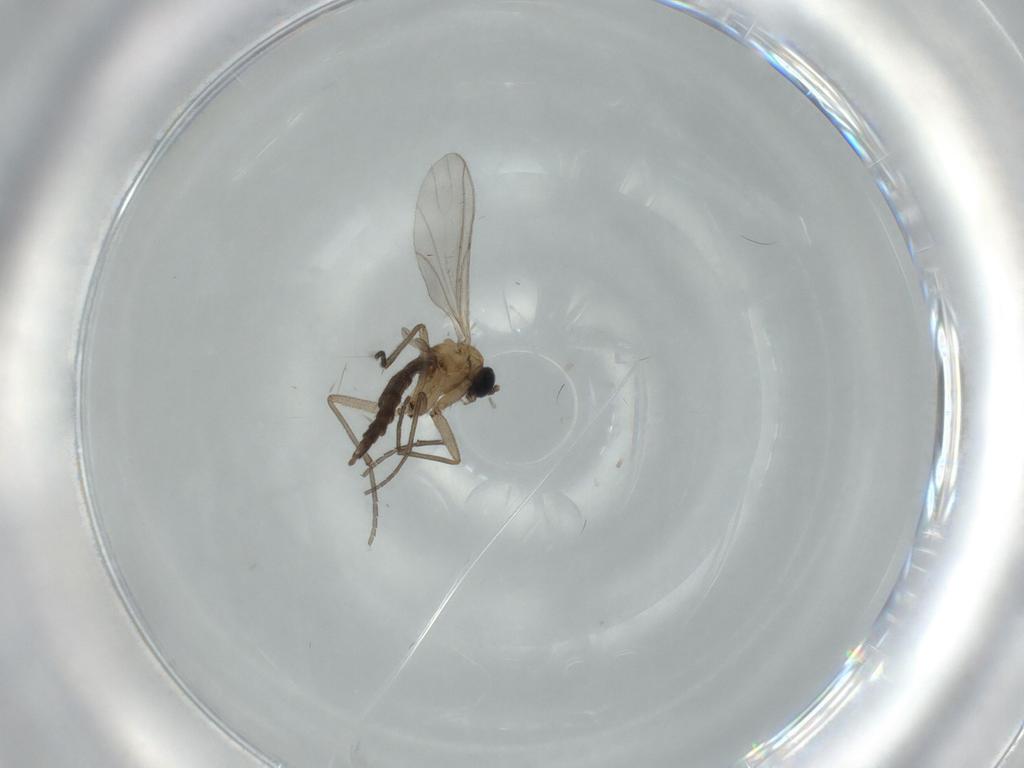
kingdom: Animalia
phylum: Arthropoda
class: Insecta
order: Diptera
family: Sciaridae
